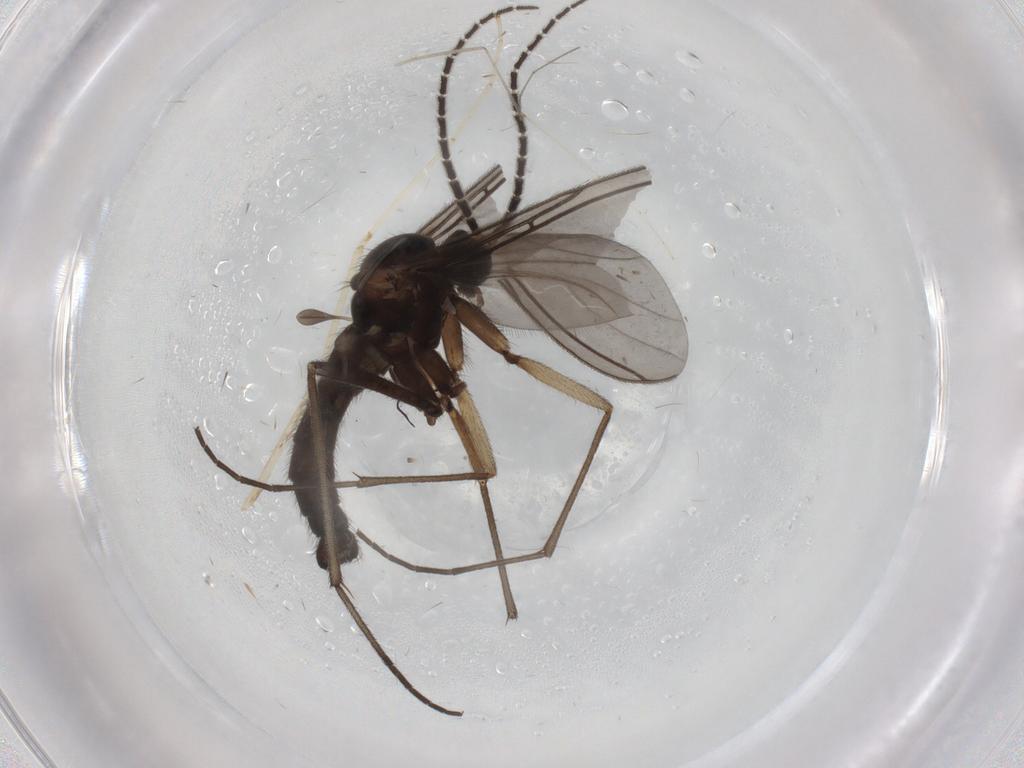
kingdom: Animalia
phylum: Arthropoda
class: Insecta
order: Diptera
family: Sciaridae
